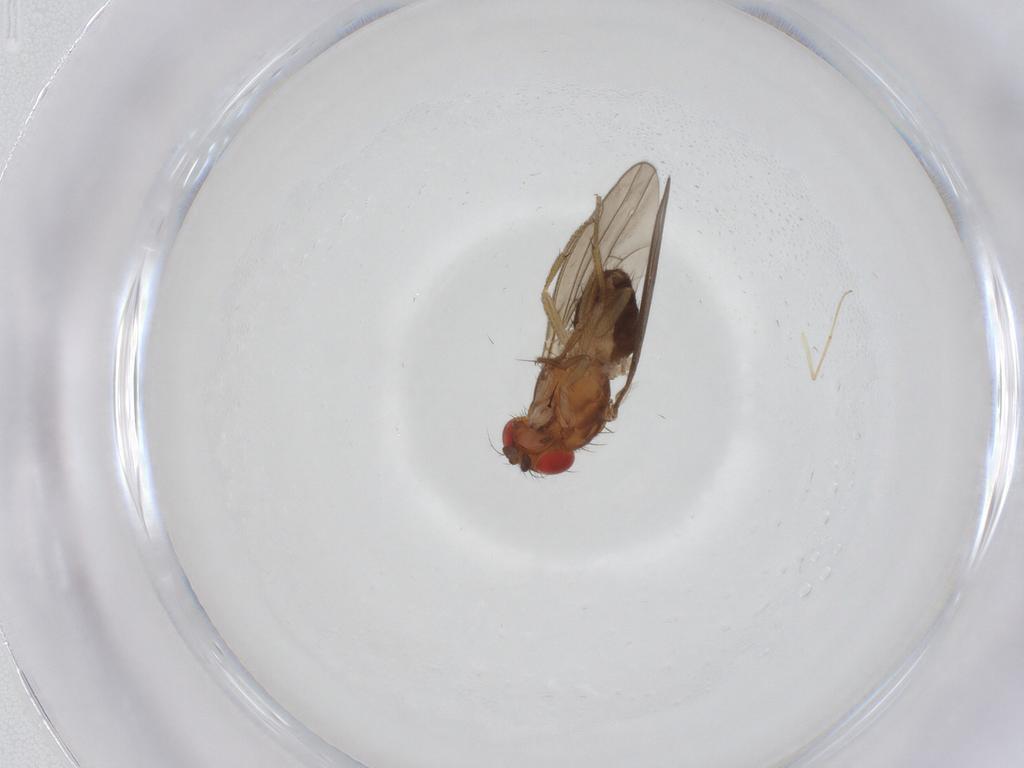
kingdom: Animalia
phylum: Arthropoda
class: Insecta
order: Diptera
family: Drosophilidae
